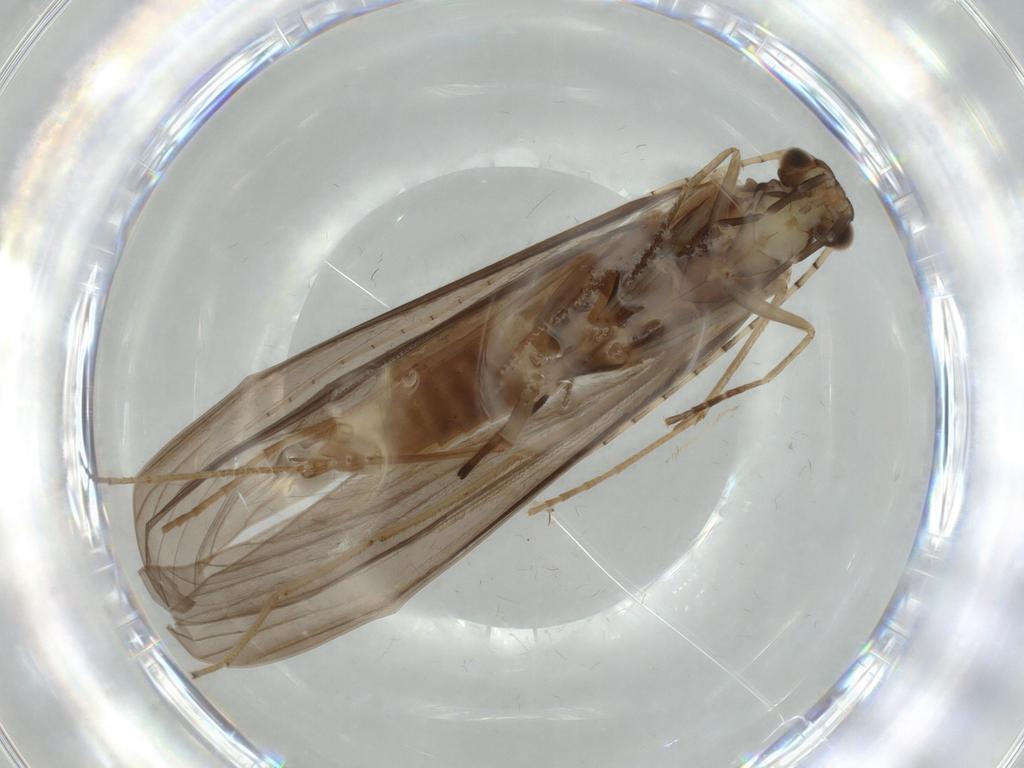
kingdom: Animalia
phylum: Arthropoda
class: Insecta
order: Trichoptera
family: Leptoceridae
